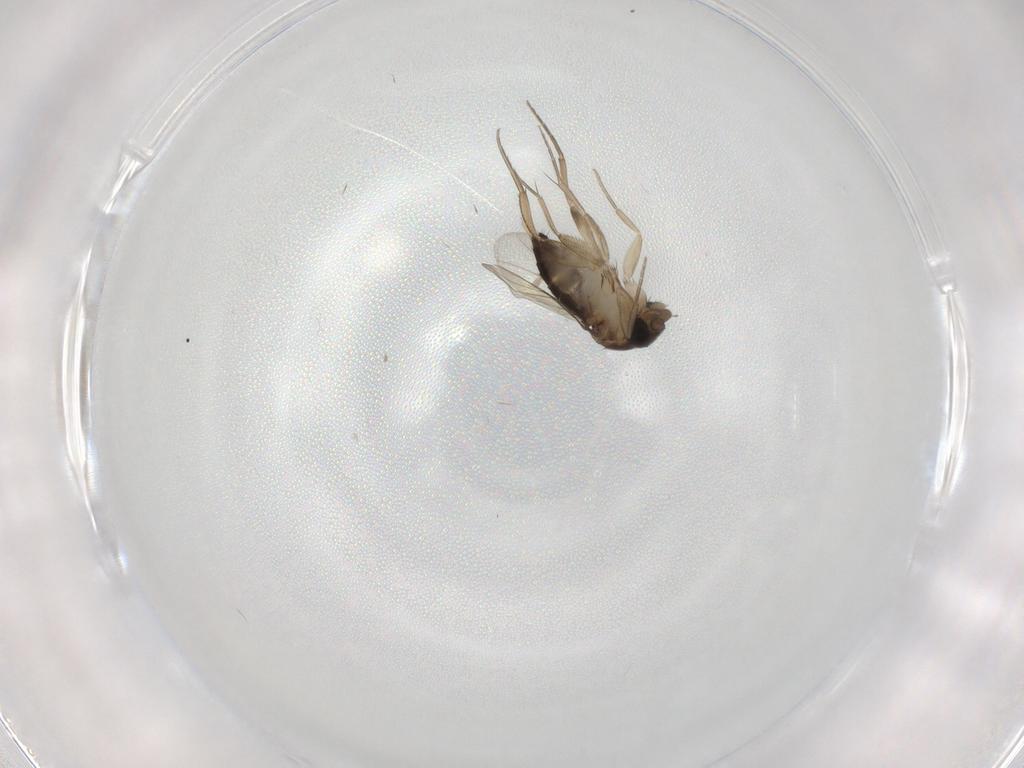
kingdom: Animalia
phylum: Arthropoda
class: Insecta
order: Diptera
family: Phoridae
